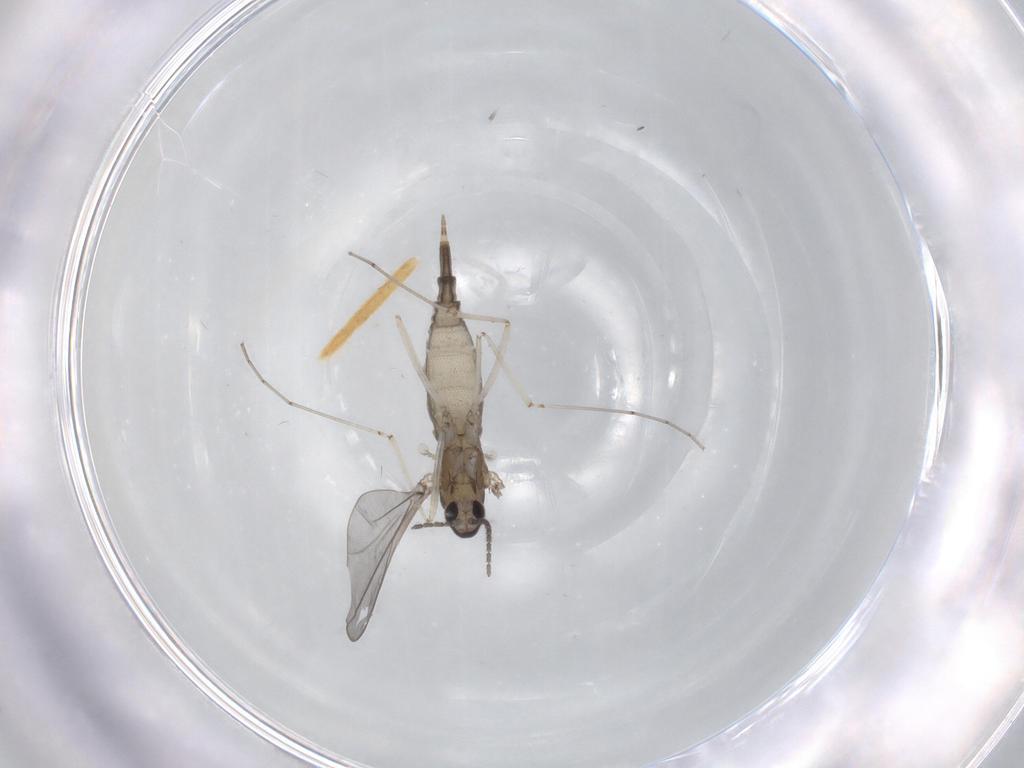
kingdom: Animalia
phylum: Arthropoda
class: Insecta
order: Diptera
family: Cecidomyiidae
